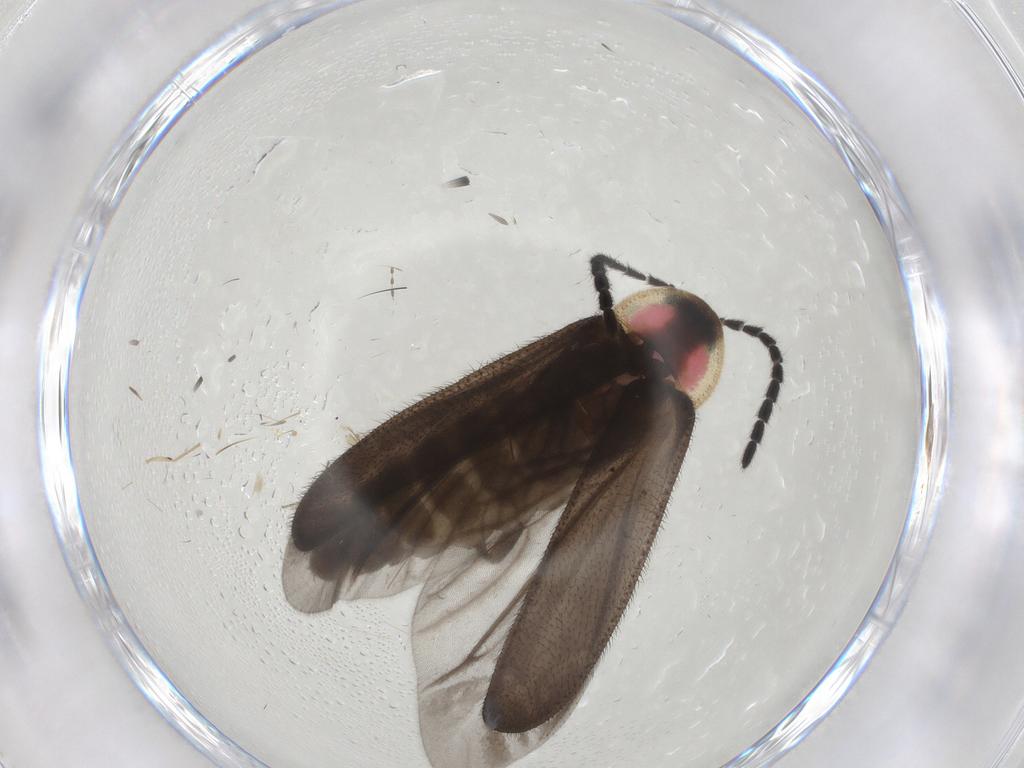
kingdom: Animalia
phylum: Arthropoda
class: Insecta
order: Coleoptera
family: Lampyridae
